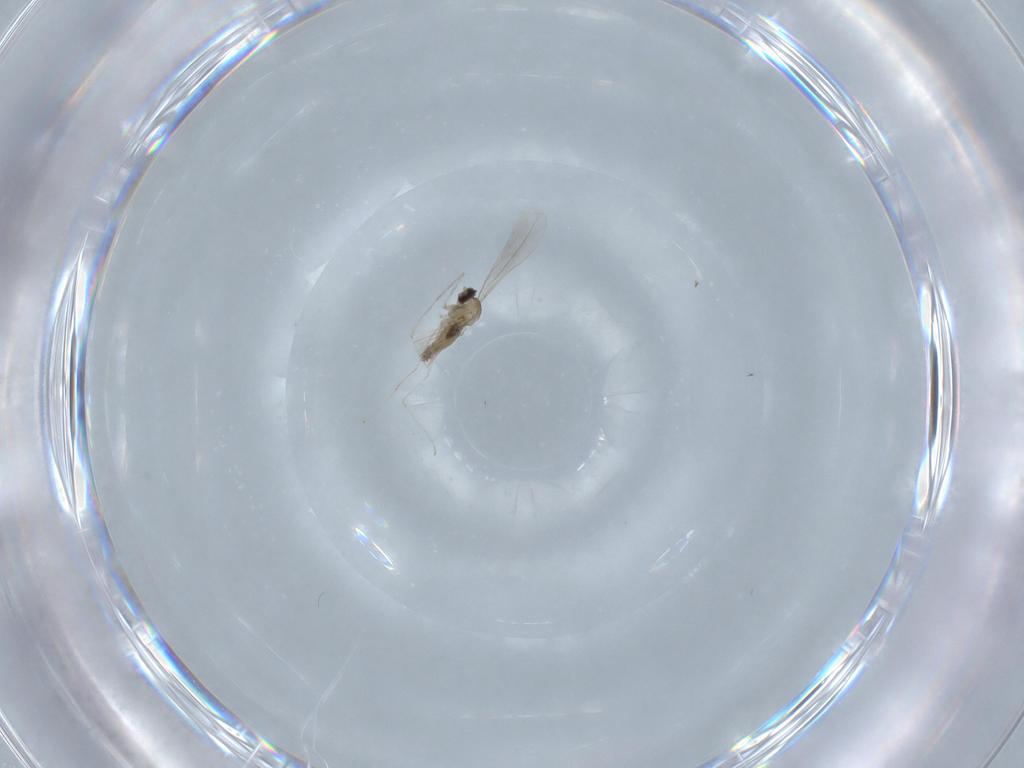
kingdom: Animalia
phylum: Arthropoda
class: Insecta
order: Diptera
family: Cecidomyiidae
